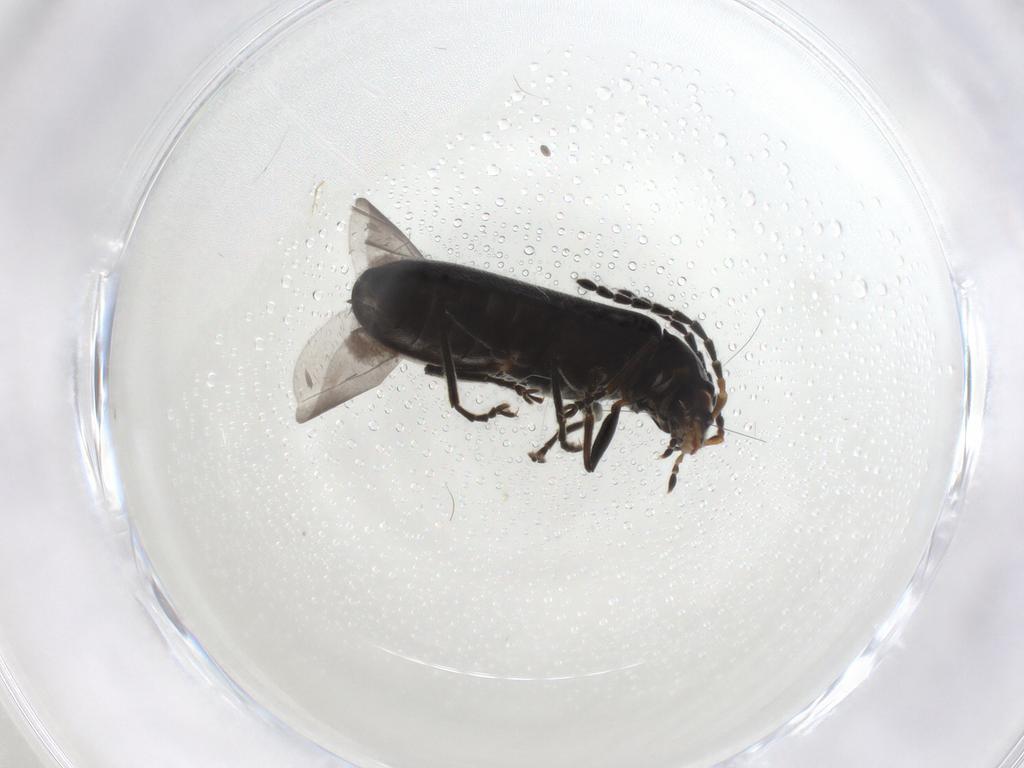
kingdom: Animalia
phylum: Arthropoda
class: Insecta
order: Coleoptera
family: Cantharidae
